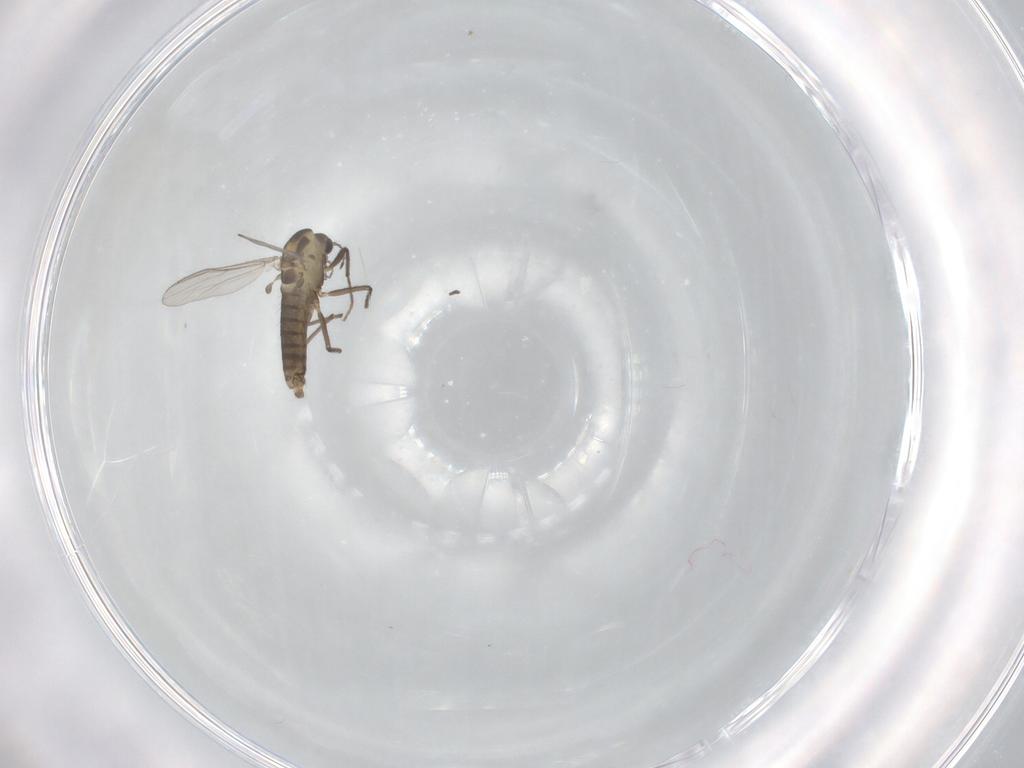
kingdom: Animalia
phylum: Arthropoda
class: Insecta
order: Diptera
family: Chironomidae
